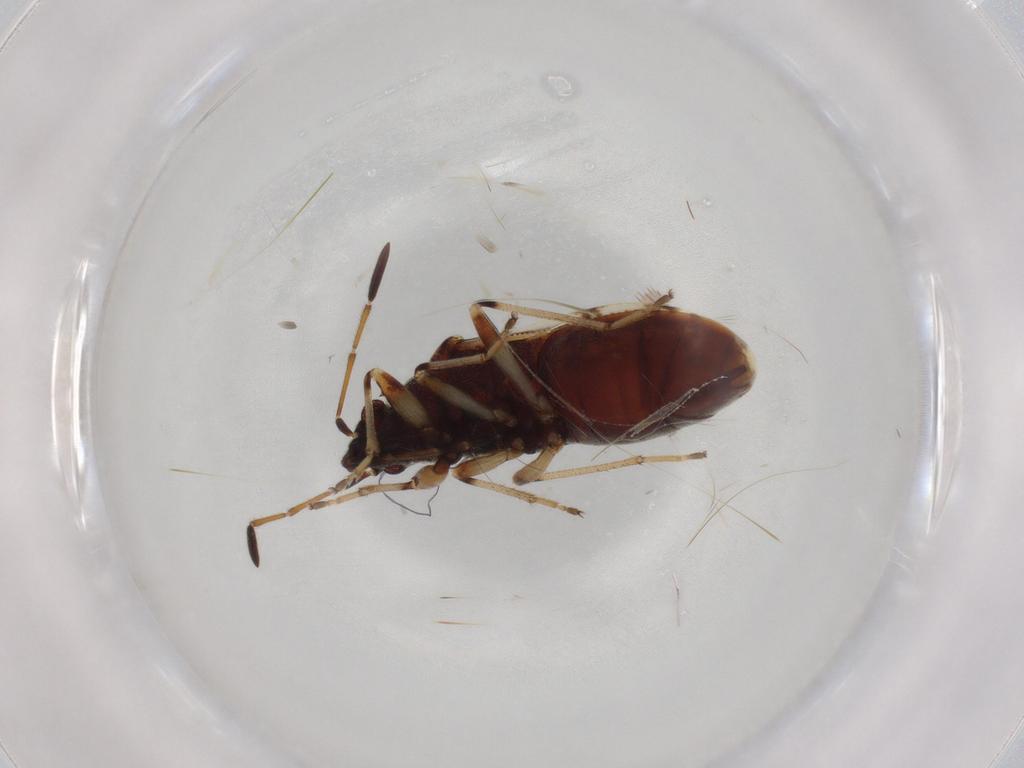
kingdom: Animalia
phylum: Arthropoda
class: Insecta
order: Hemiptera
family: Rhyparochromidae
